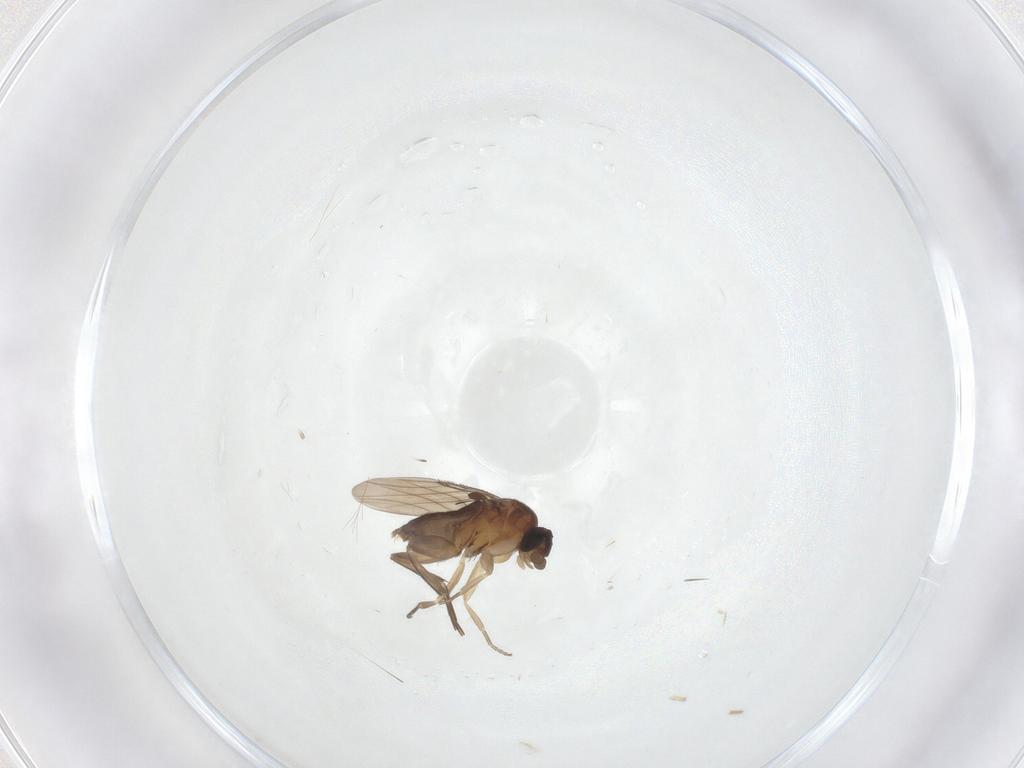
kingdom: Animalia
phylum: Arthropoda
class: Insecta
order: Diptera
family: Phoridae
